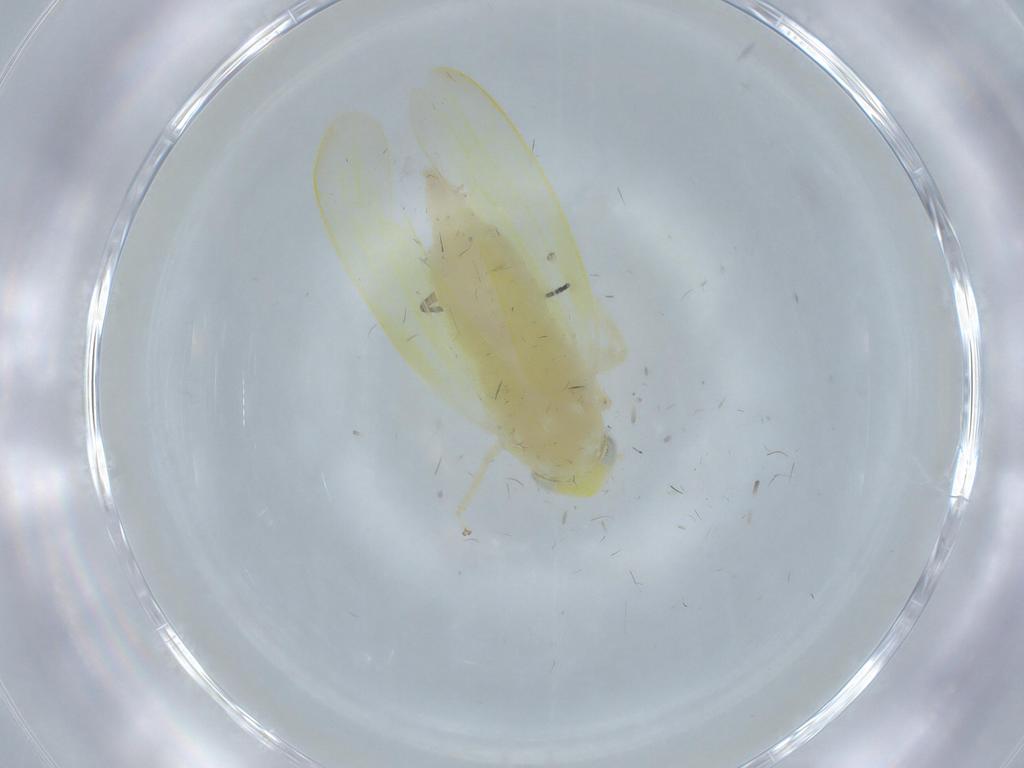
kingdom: Animalia
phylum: Arthropoda
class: Insecta
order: Hemiptera
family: Cicadellidae
